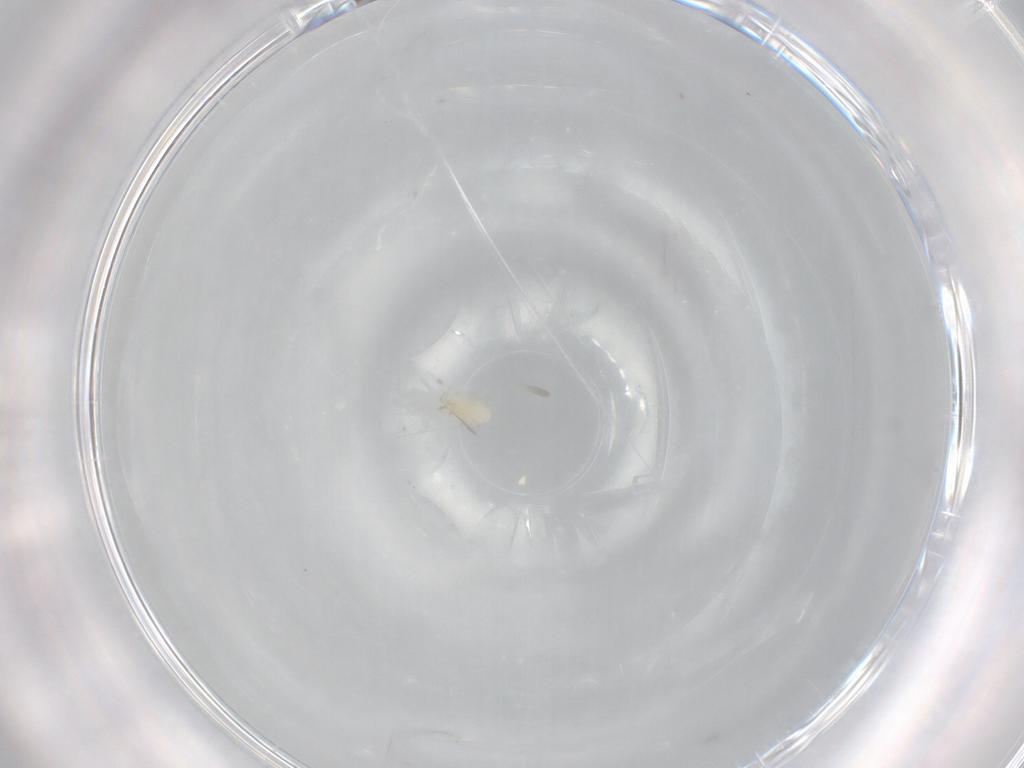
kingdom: Animalia
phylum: Arthropoda
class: Arachnida
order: Mesostigmata
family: Phytoseiidae
